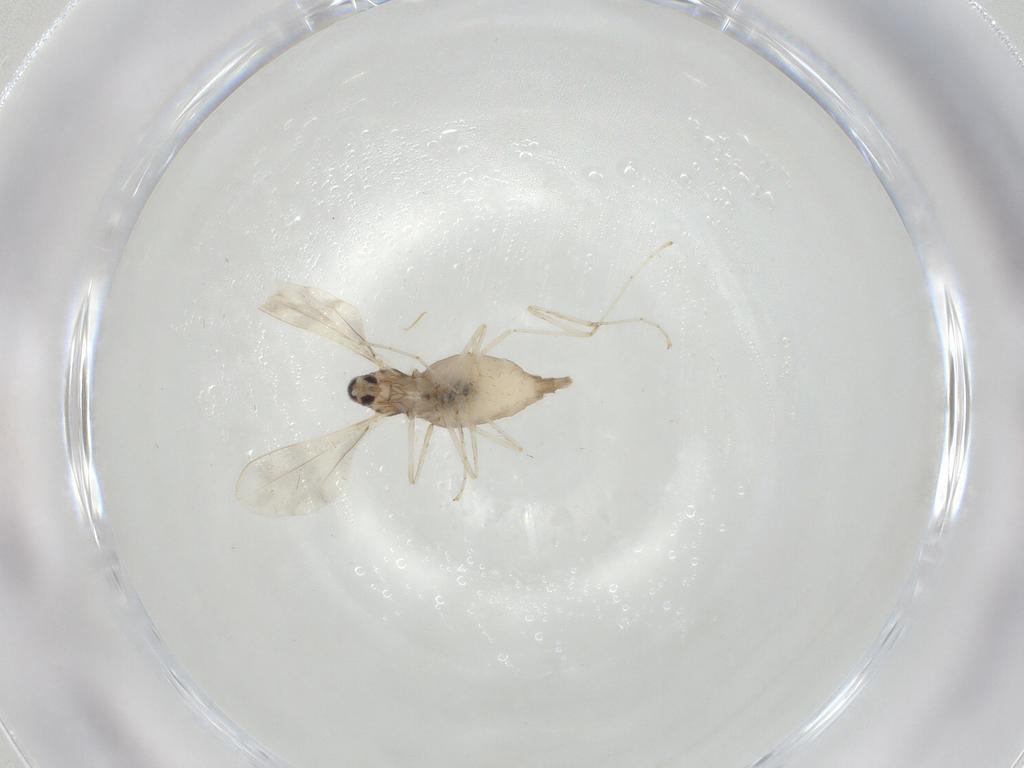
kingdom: Animalia
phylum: Arthropoda
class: Insecta
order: Diptera
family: Cecidomyiidae
